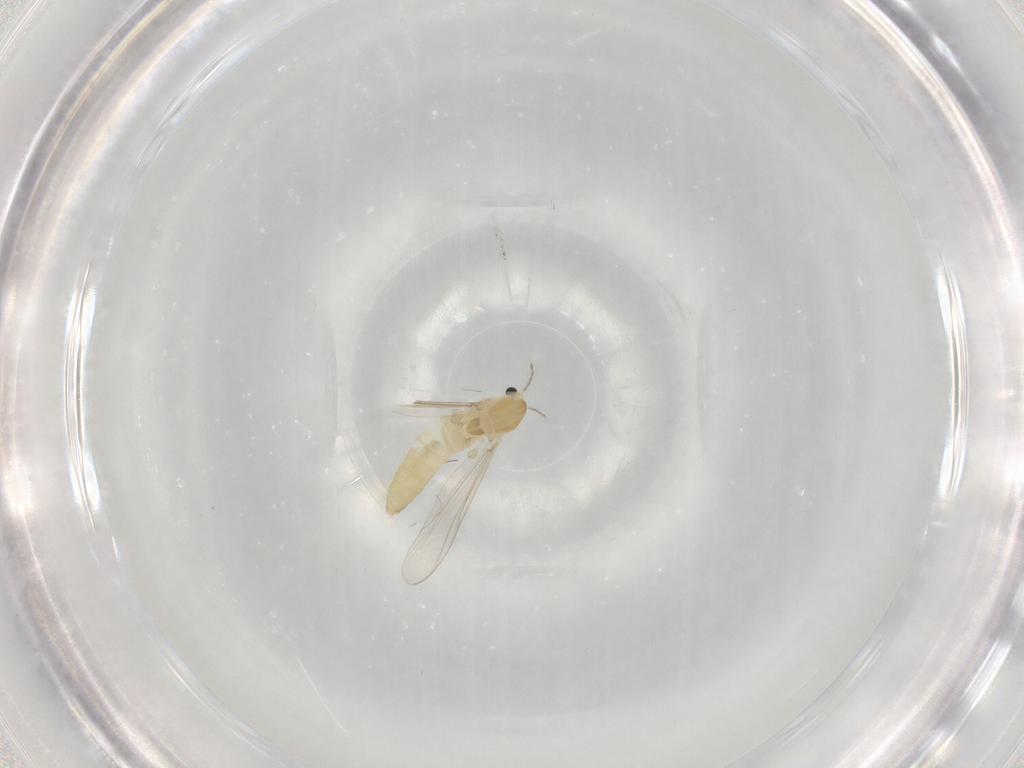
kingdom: Animalia
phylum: Arthropoda
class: Insecta
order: Diptera
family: Chironomidae
